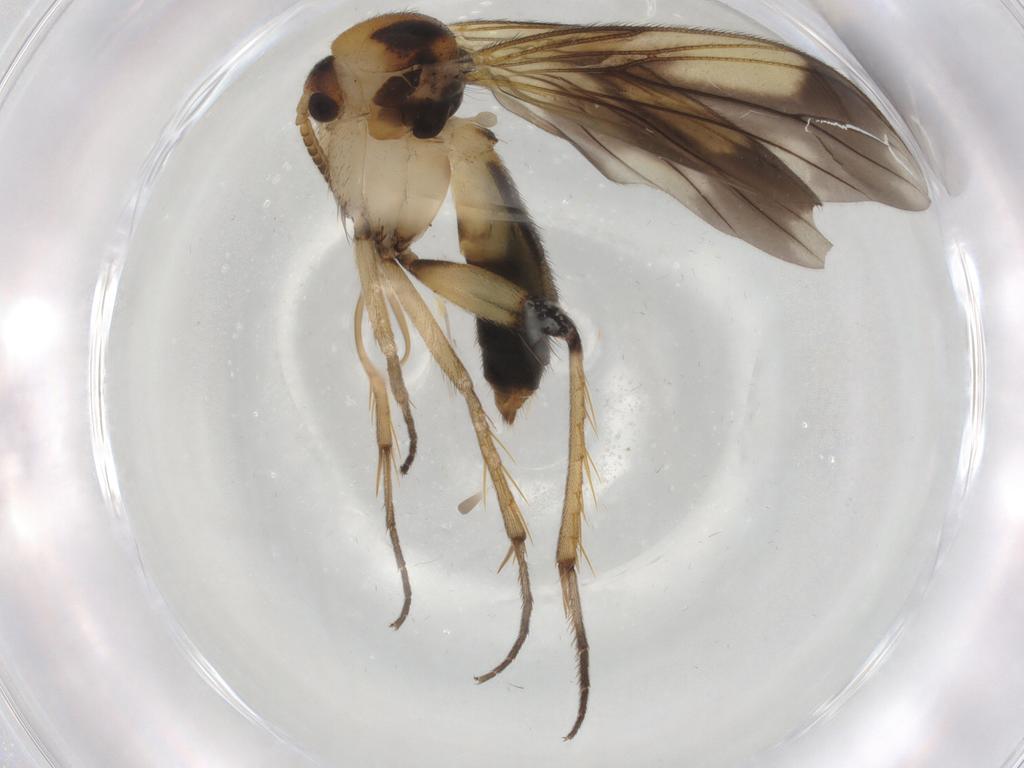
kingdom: Animalia
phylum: Arthropoda
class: Insecta
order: Diptera
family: Mycetophilidae
